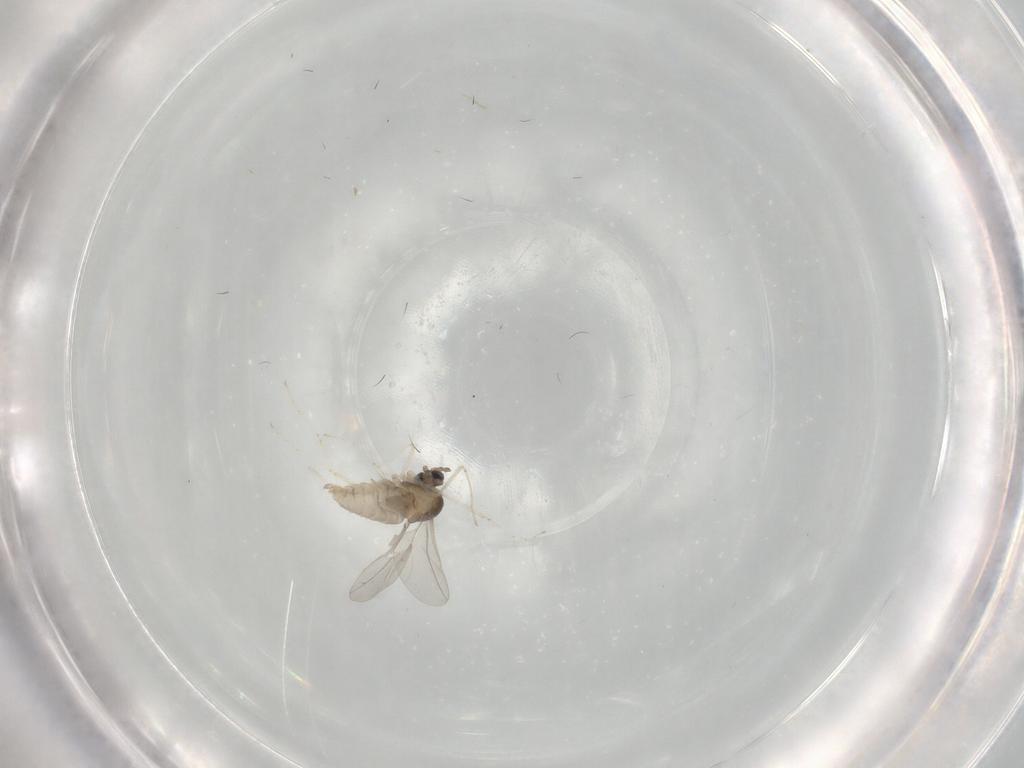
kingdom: Animalia
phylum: Arthropoda
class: Insecta
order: Diptera
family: Cecidomyiidae
